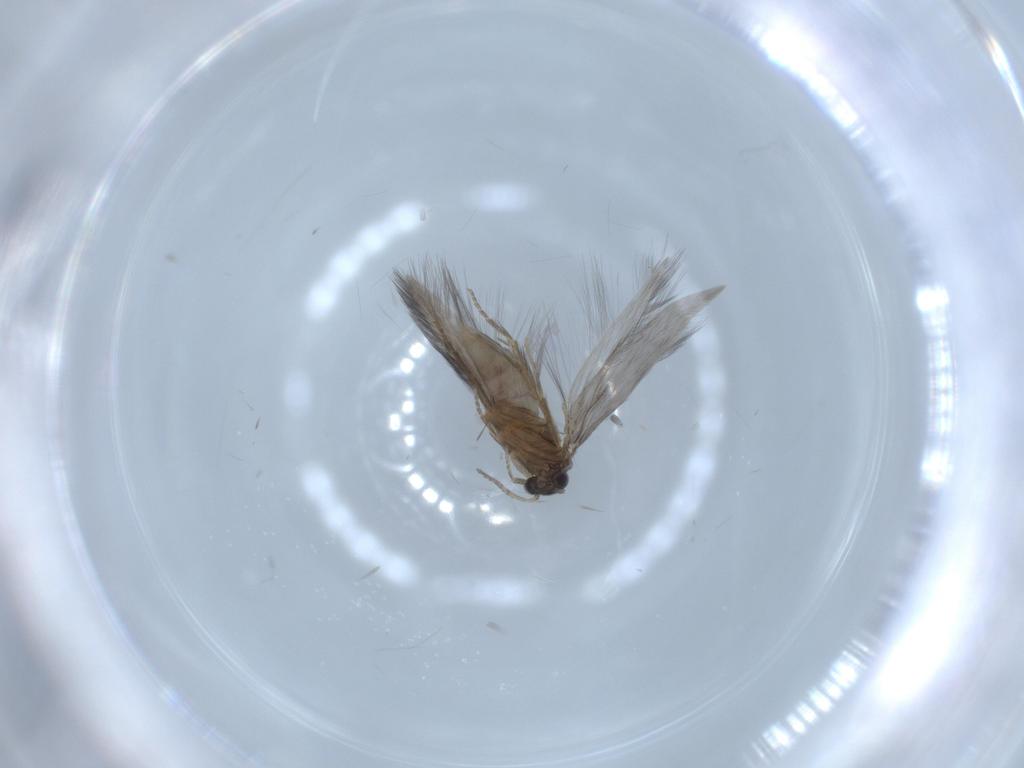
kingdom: Animalia
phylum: Arthropoda
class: Insecta
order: Trichoptera
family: Hydroptilidae
